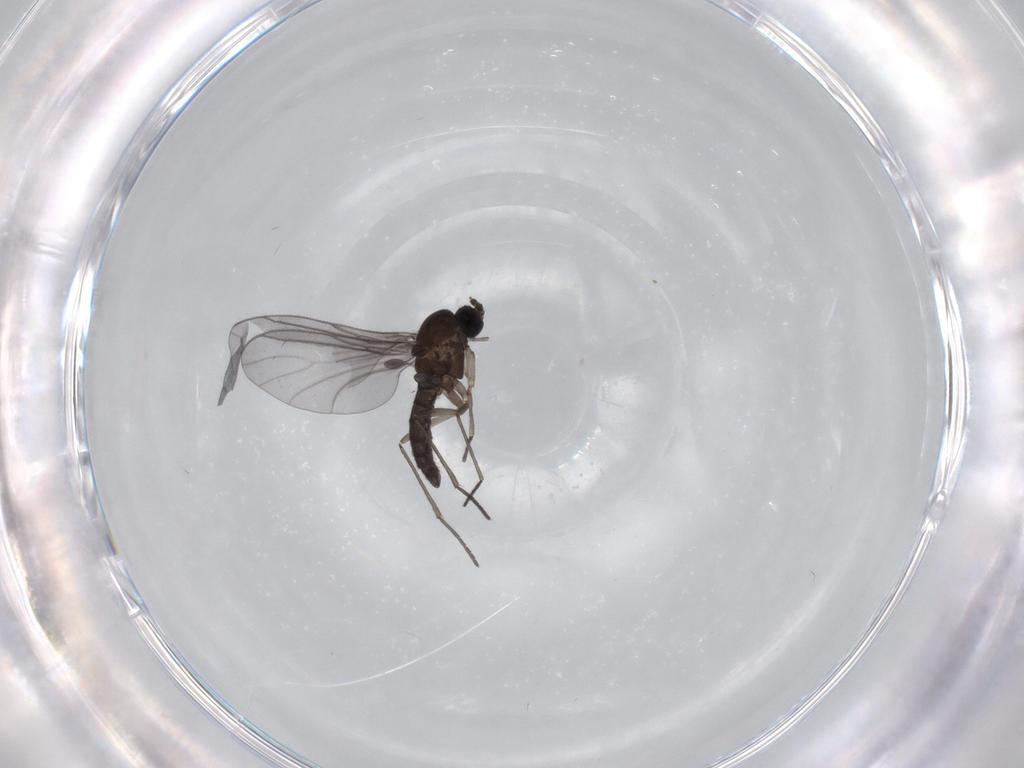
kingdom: Animalia
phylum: Arthropoda
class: Insecta
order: Diptera
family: Sciaridae
